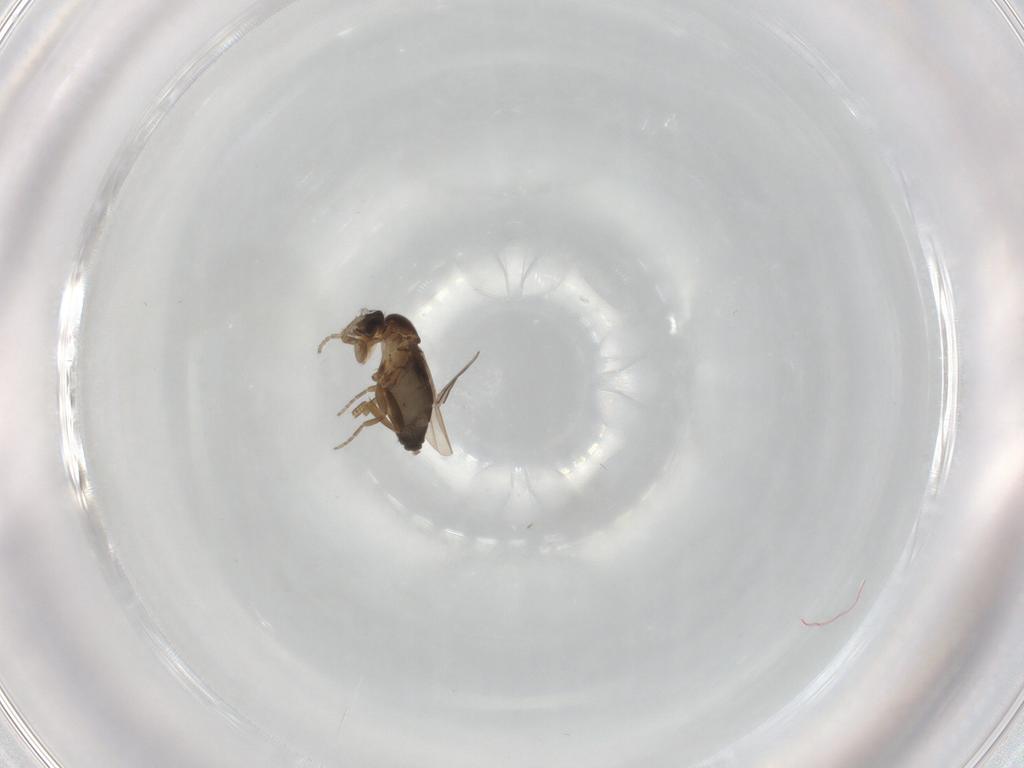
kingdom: Animalia
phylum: Arthropoda
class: Insecta
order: Diptera
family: Phoridae
